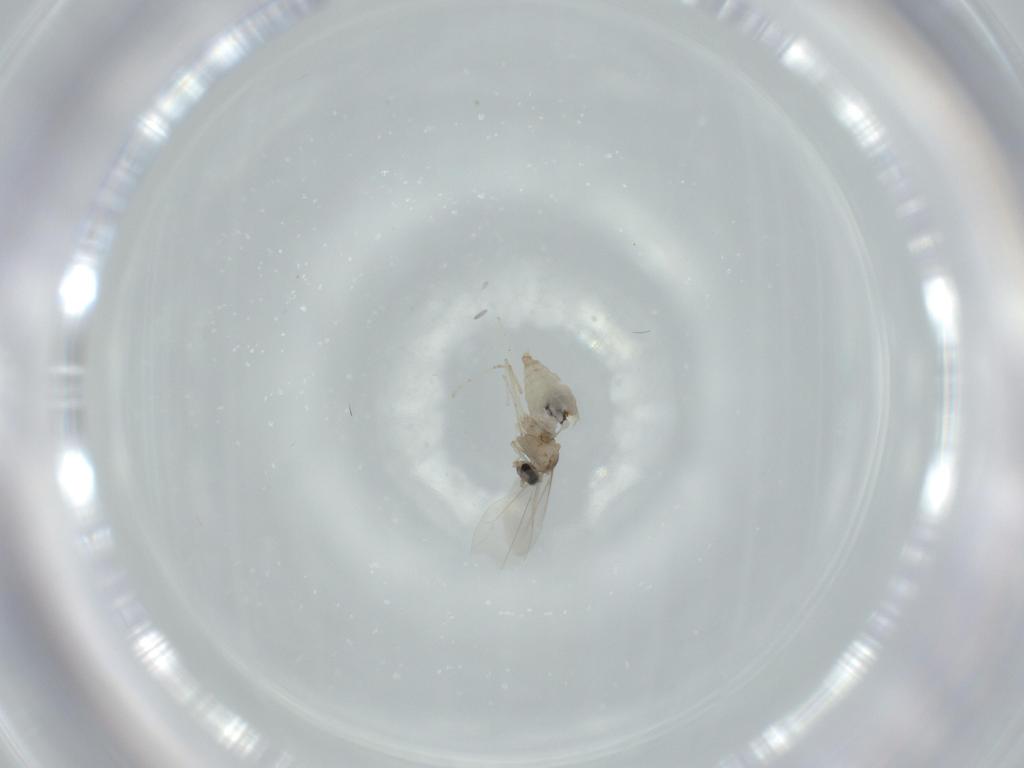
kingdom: Animalia
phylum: Arthropoda
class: Insecta
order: Diptera
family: Cecidomyiidae
